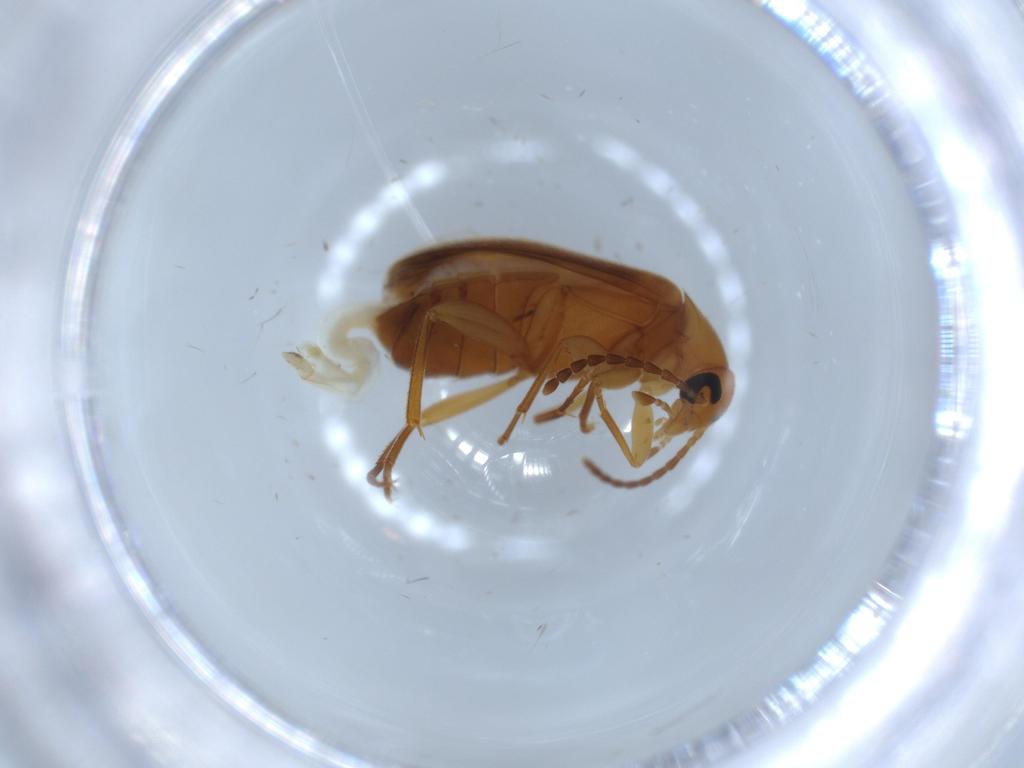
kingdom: Animalia
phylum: Arthropoda
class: Insecta
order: Coleoptera
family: Scraptiidae
